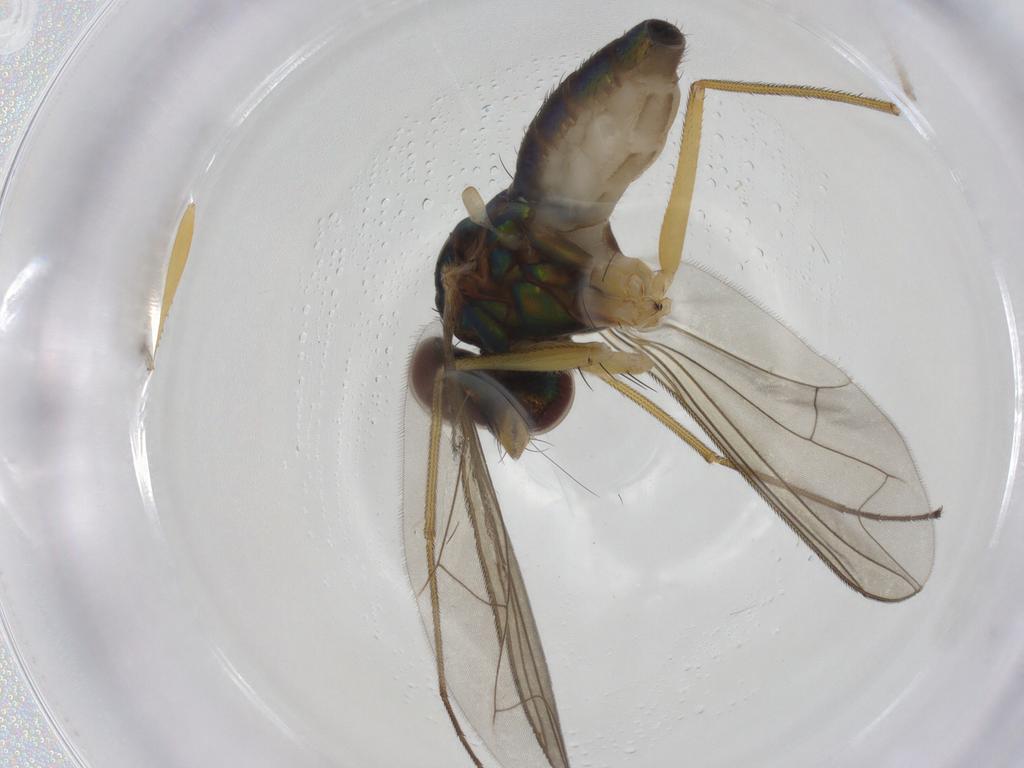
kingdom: Animalia
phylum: Arthropoda
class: Insecta
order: Diptera
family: Dolichopodidae
